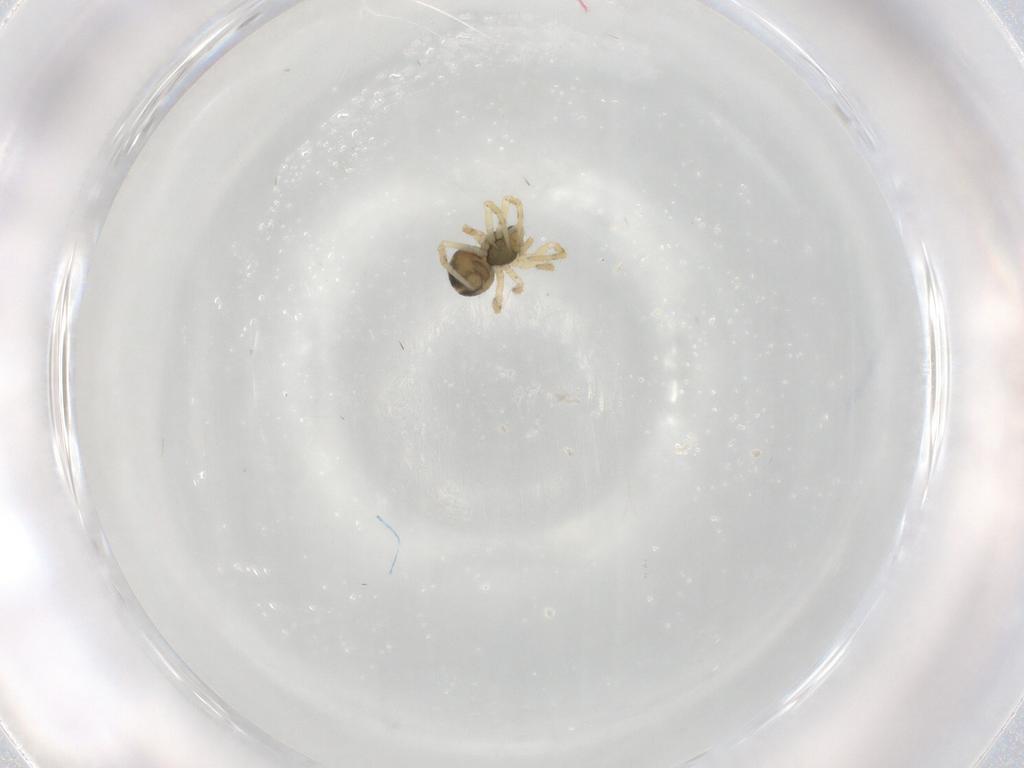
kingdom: Animalia
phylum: Arthropoda
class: Arachnida
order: Araneae
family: Theridiidae
